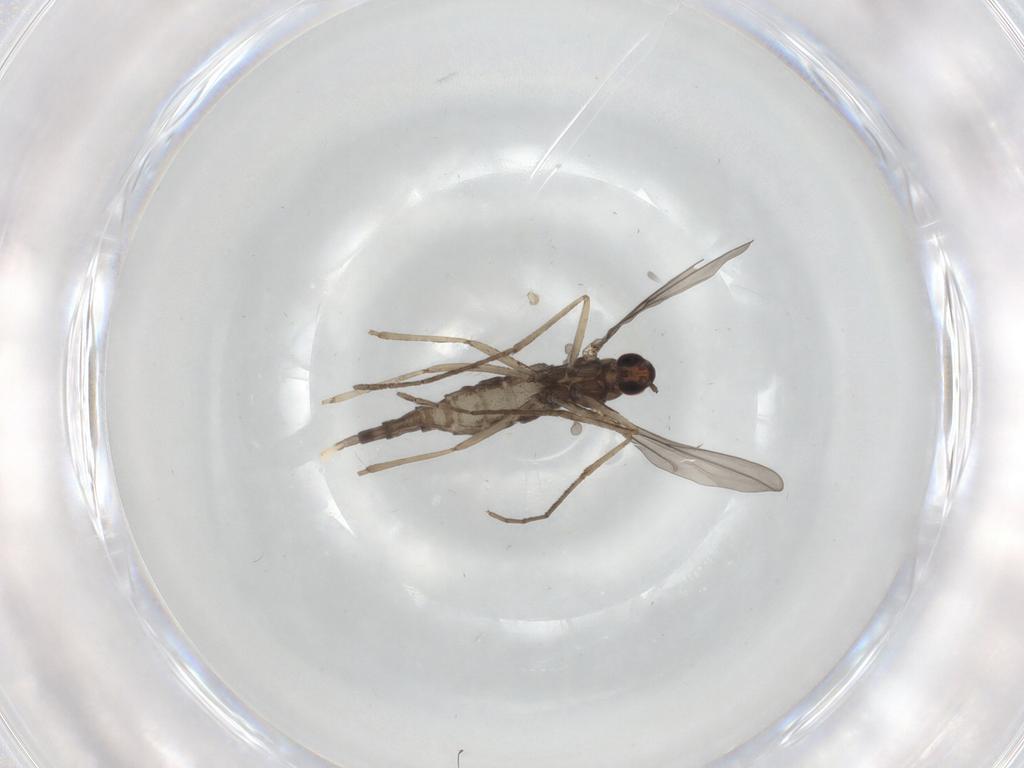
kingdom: Animalia
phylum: Arthropoda
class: Insecta
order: Diptera
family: Cecidomyiidae
